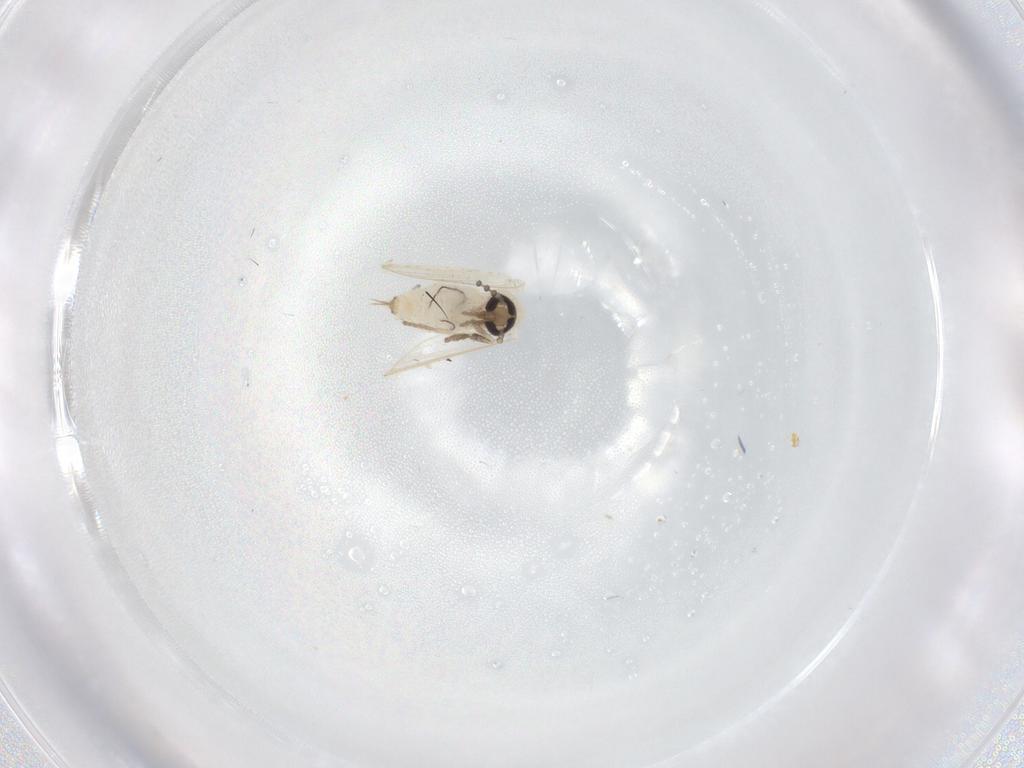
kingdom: Animalia
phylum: Arthropoda
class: Insecta
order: Diptera
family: Psychodidae
